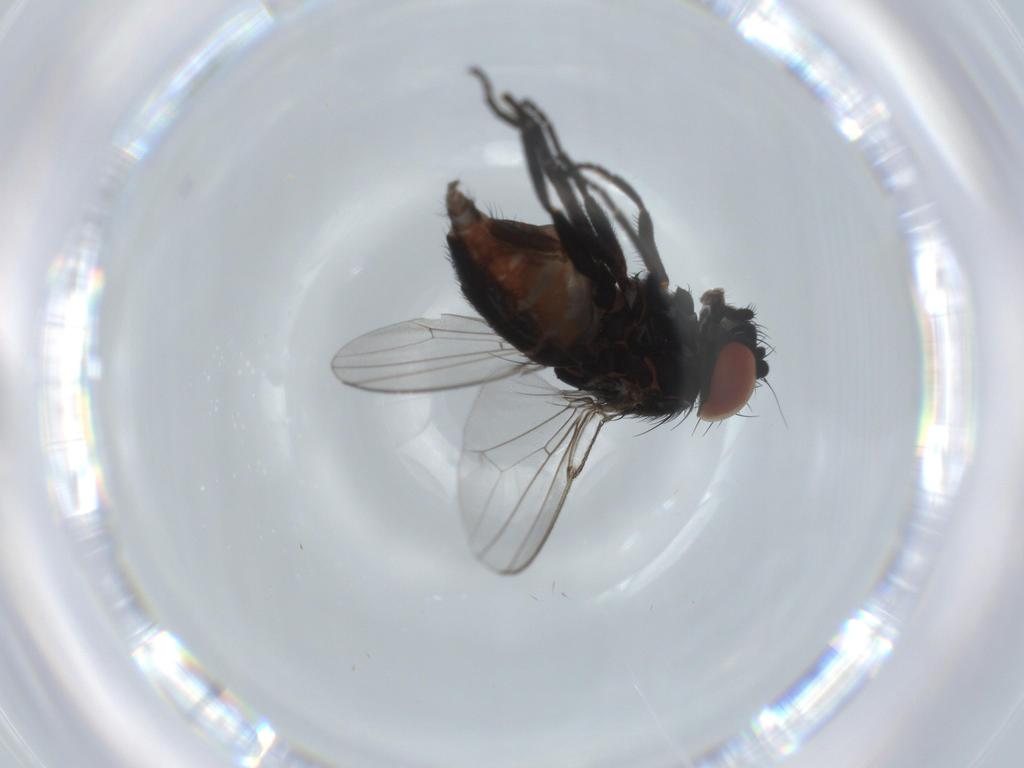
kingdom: Animalia
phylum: Arthropoda
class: Insecta
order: Diptera
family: Milichiidae
